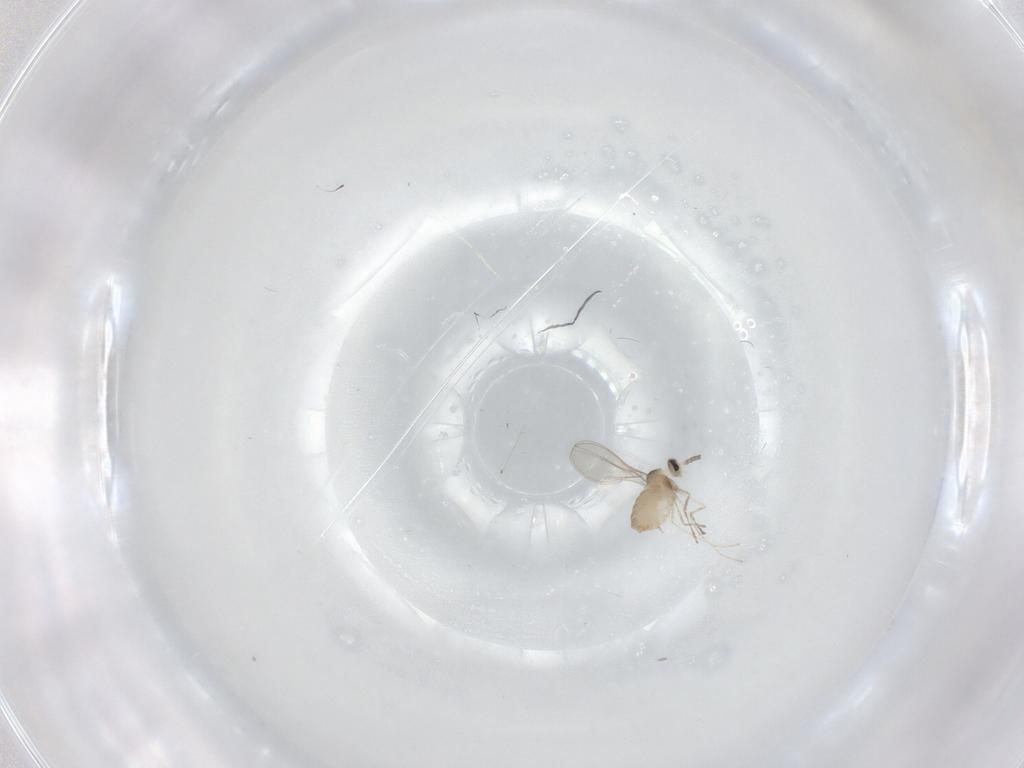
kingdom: Animalia
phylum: Arthropoda
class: Insecta
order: Diptera
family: Cecidomyiidae
